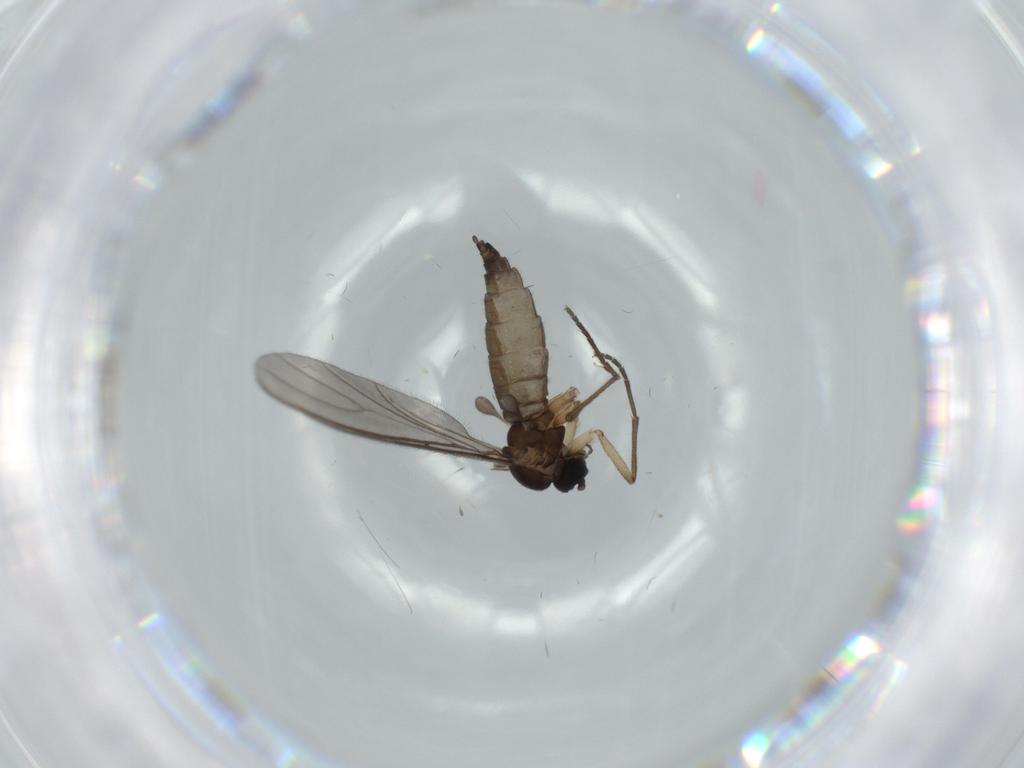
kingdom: Animalia
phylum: Arthropoda
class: Insecta
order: Diptera
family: Sciaridae
